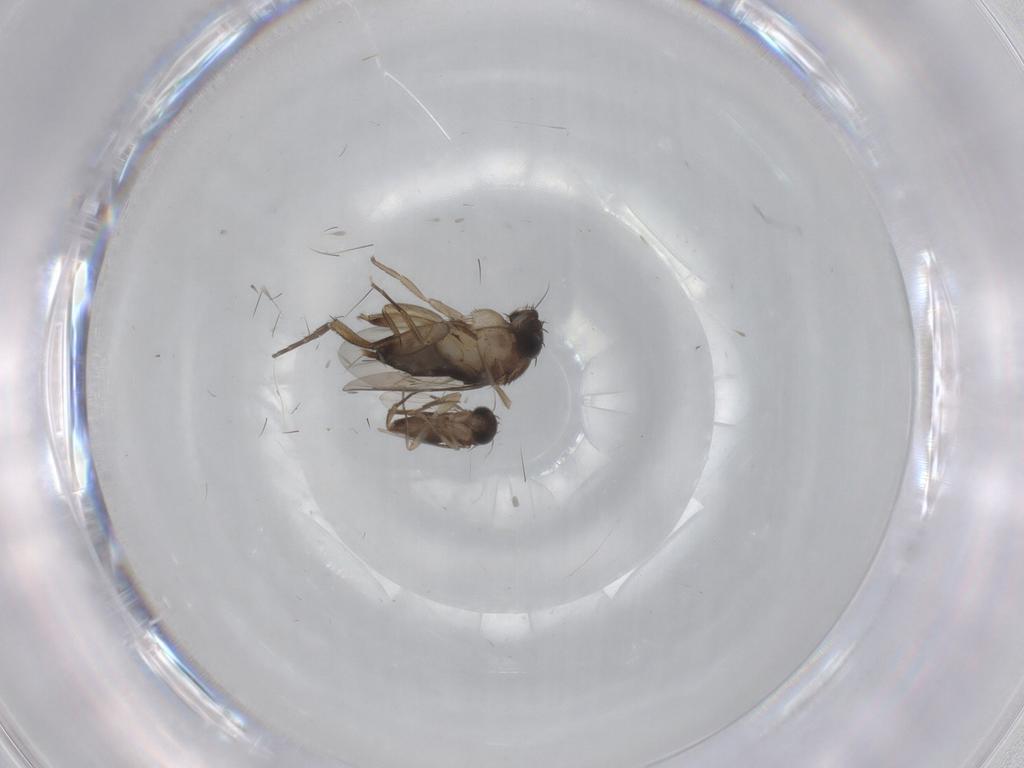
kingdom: Animalia
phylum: Arthropoda
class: Insecta
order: Diptera
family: Phoridae
